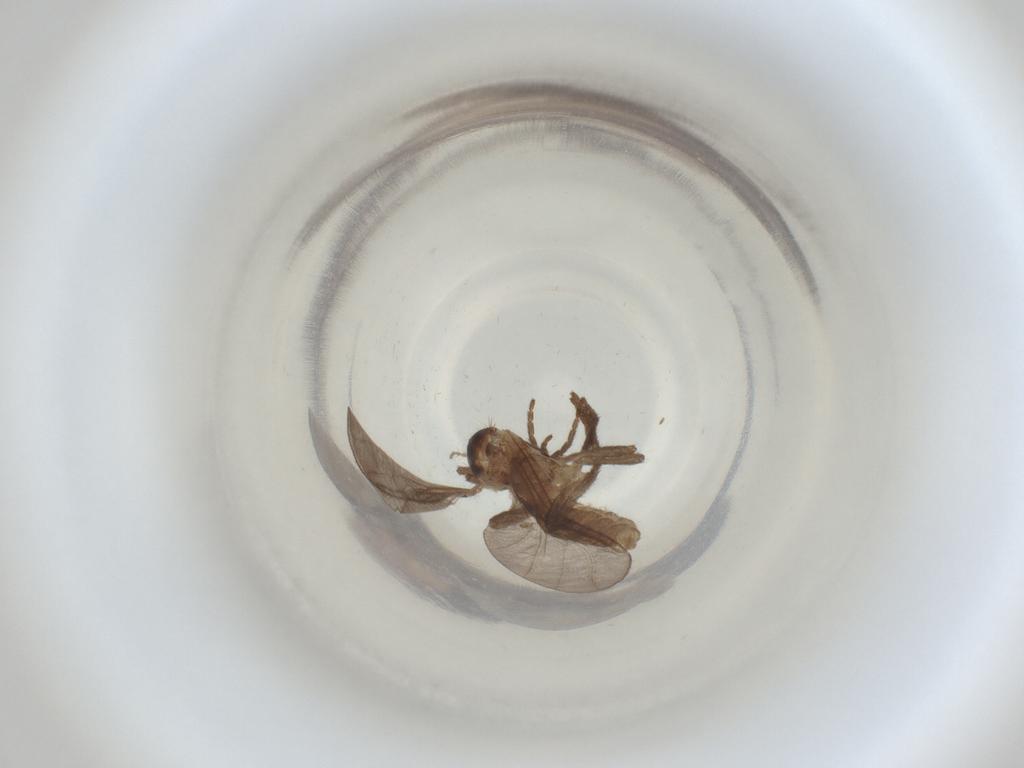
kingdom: Animalia
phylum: Arthropoda
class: Insecta
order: Diptera
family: Cecidomyiidae
